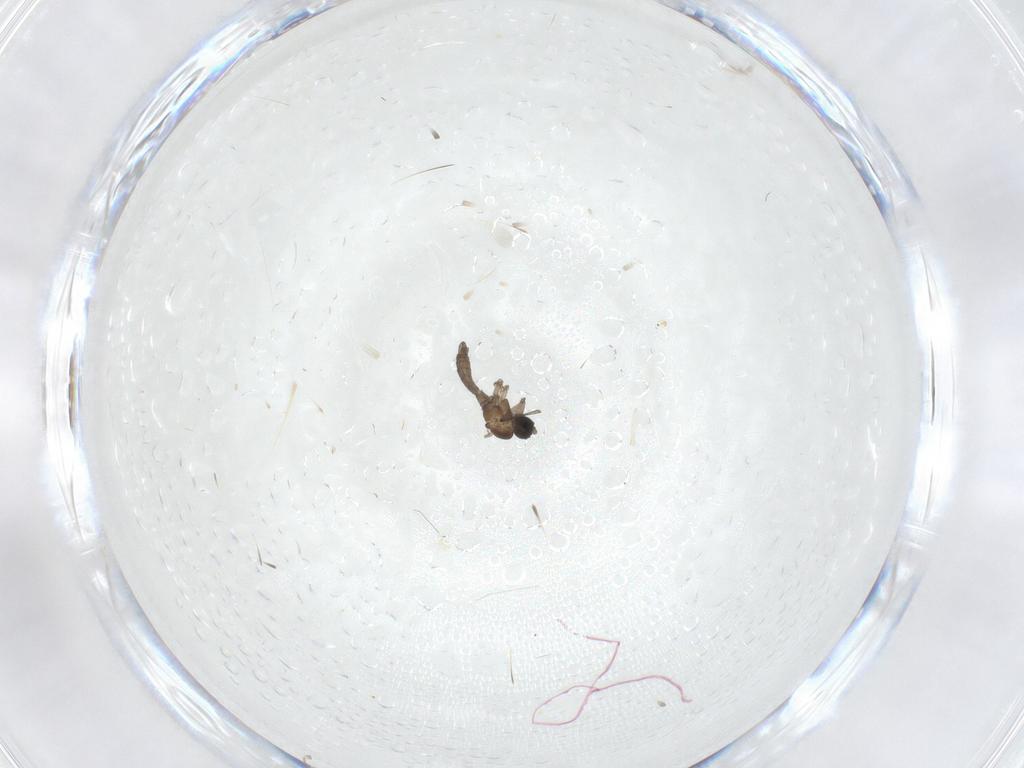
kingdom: Animalia
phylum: Arthropoda
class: Insecta
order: Diptera
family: Sciaridae
